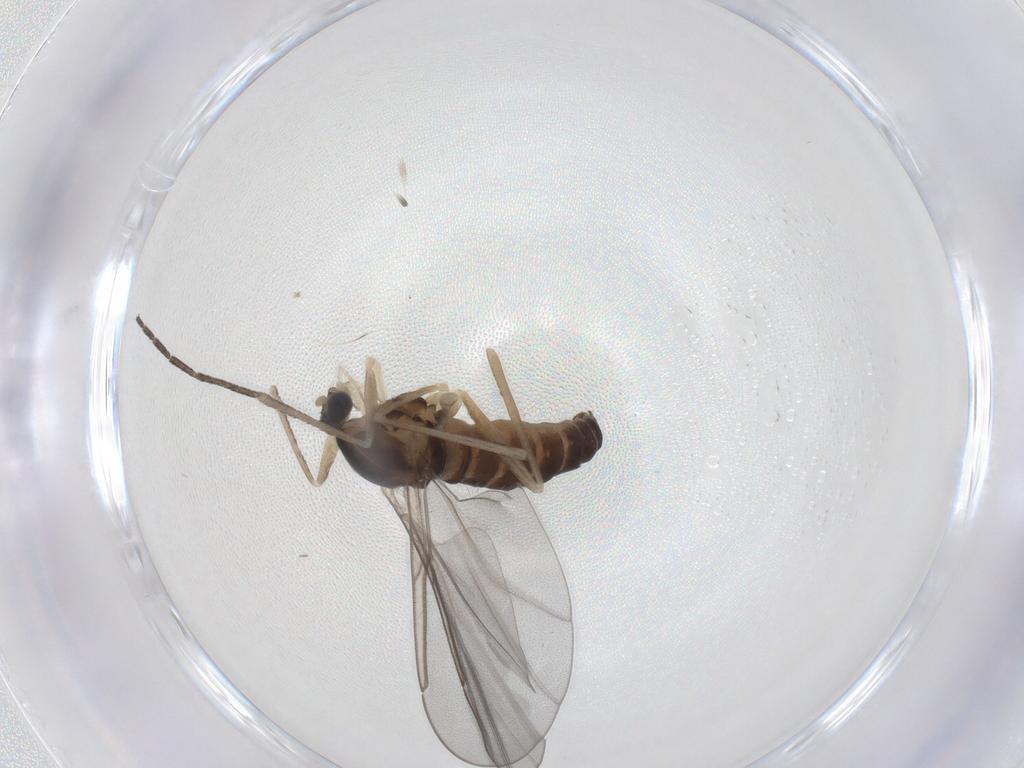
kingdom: Animalia
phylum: Arthropoda
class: Insecta
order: Diptera
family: Cecidomyiidae
